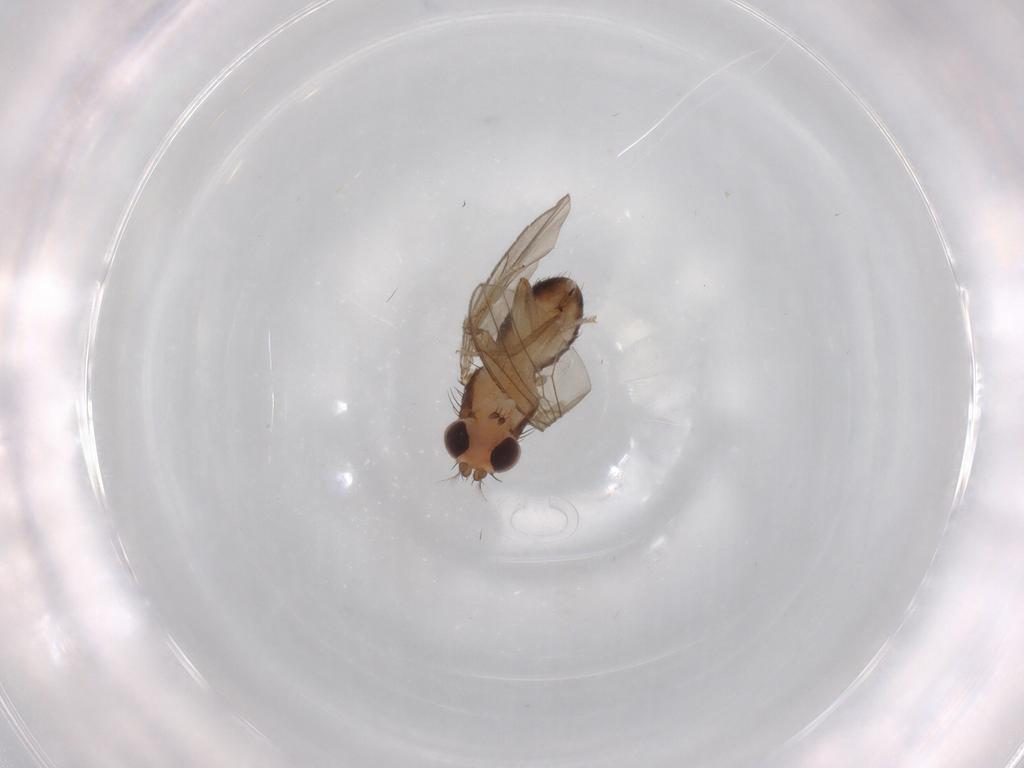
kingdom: Animalia
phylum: Arthropoda
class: Insecta
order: Diptera
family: Drosophilidae
